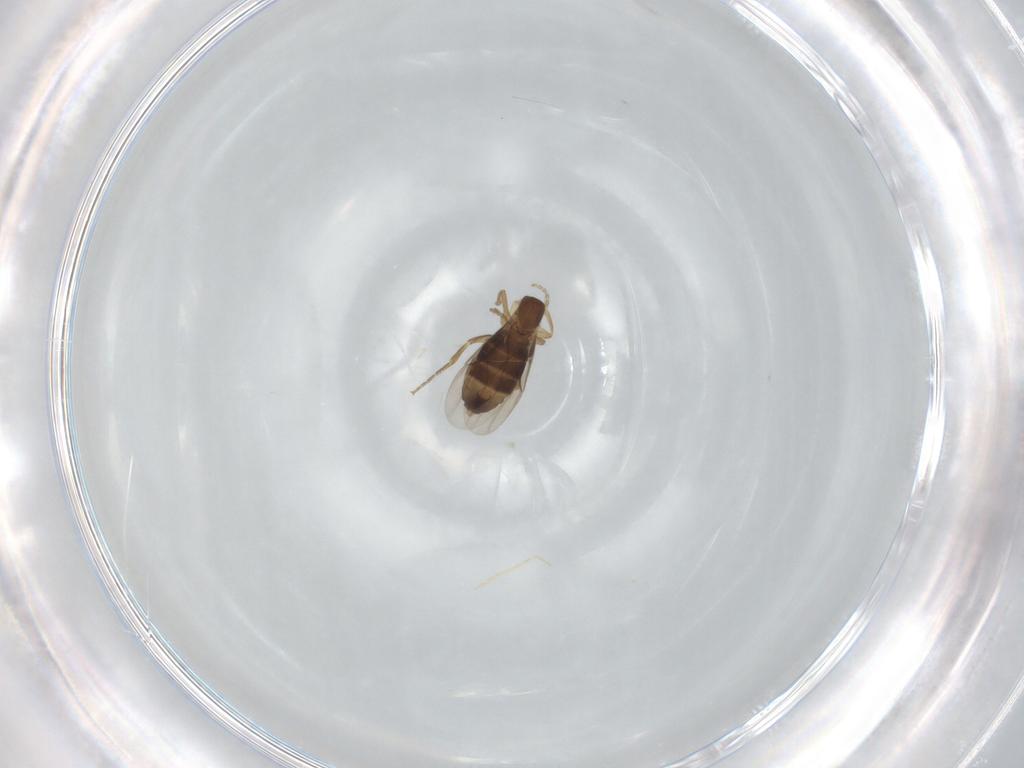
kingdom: Animalia
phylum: Arthropoda
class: Insecta
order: Diptera
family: Phoridae
